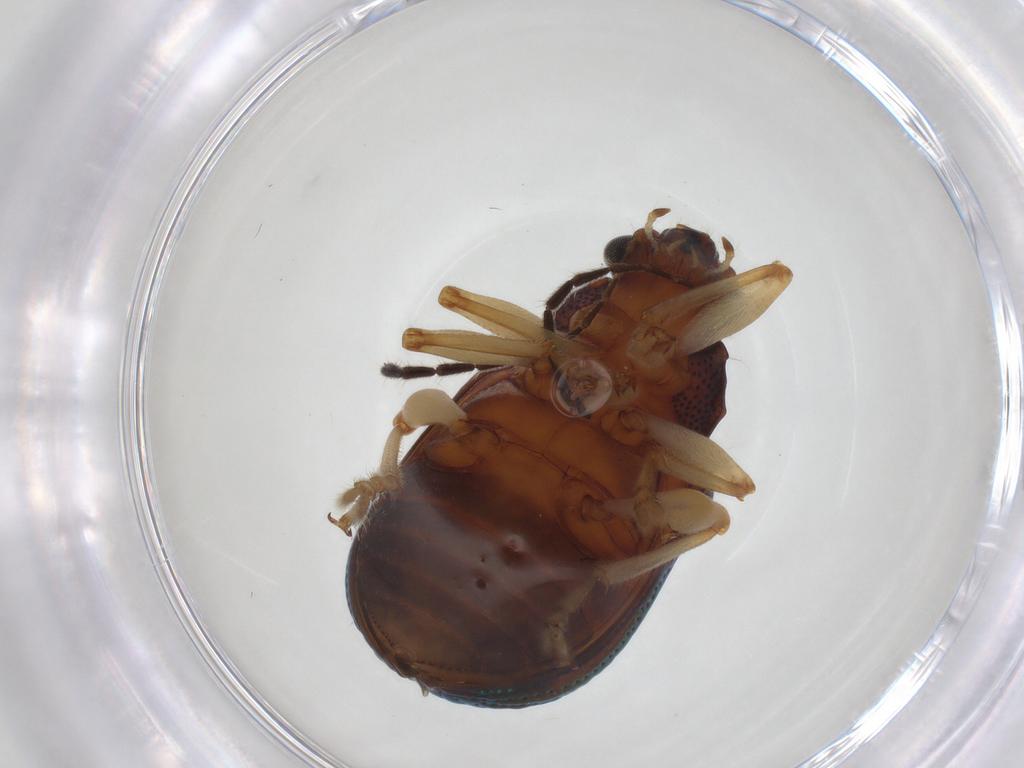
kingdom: Animalia
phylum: Arthropoda
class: Insecta
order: Coleoptera
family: Chrysomelidae
